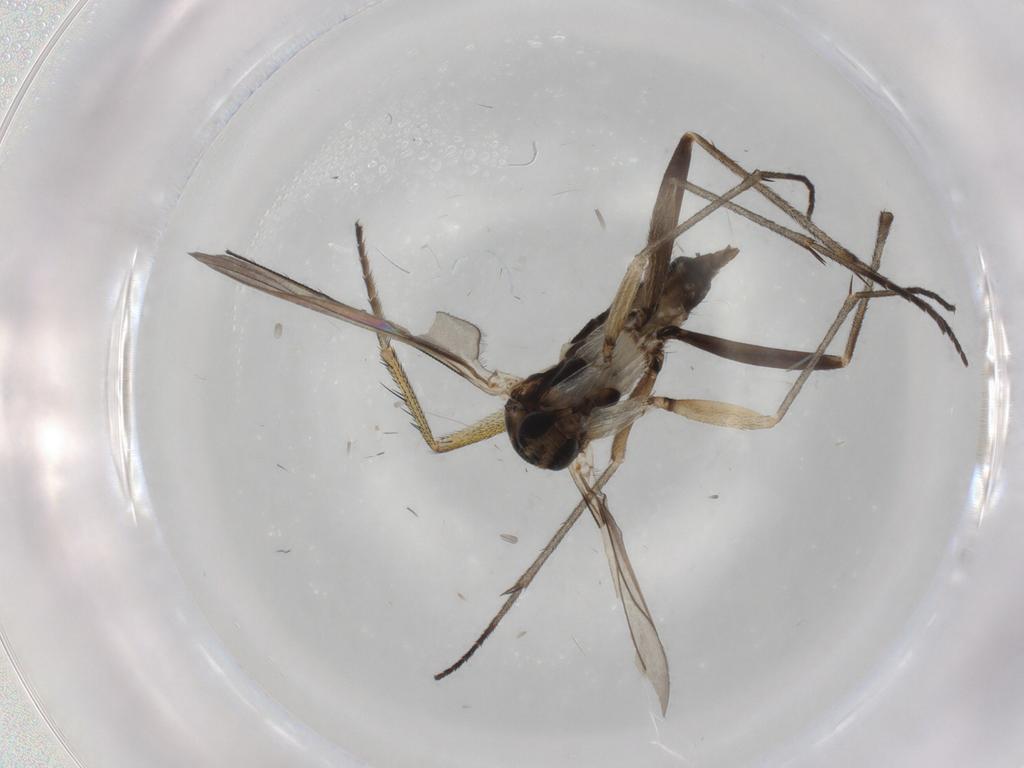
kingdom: Animalia
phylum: Arthropoda
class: Insecta
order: Diptera
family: Sciaridae
